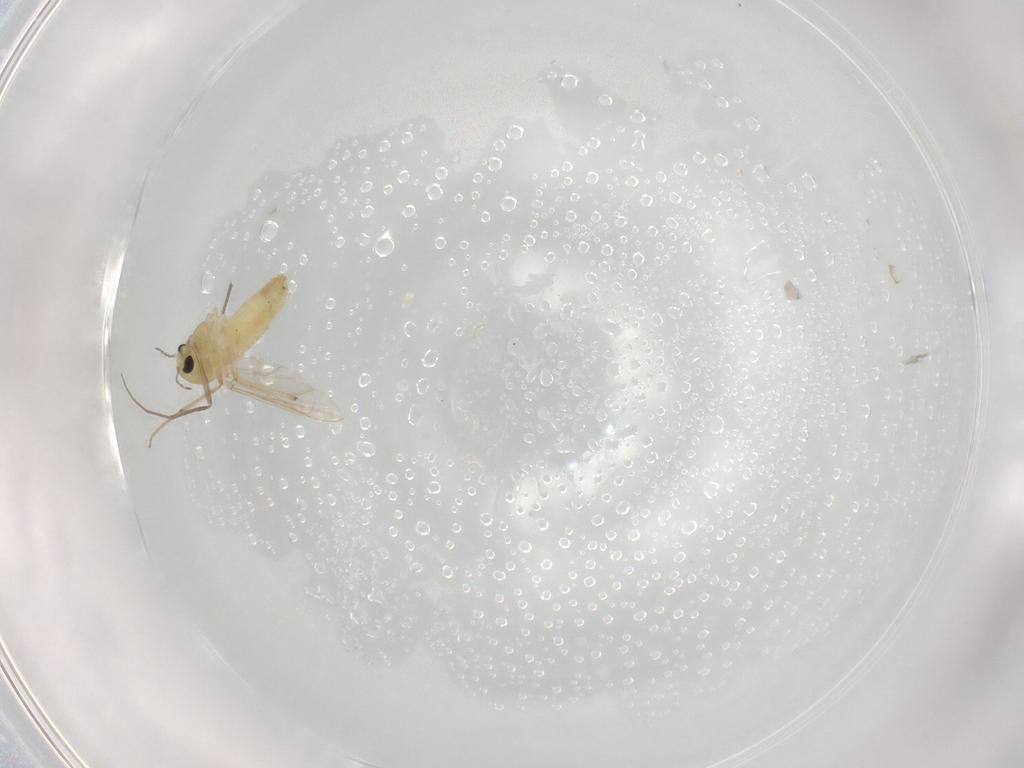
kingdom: Animalia
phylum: Arthropoda
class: Insecta
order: Diptera
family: Chironomidae
